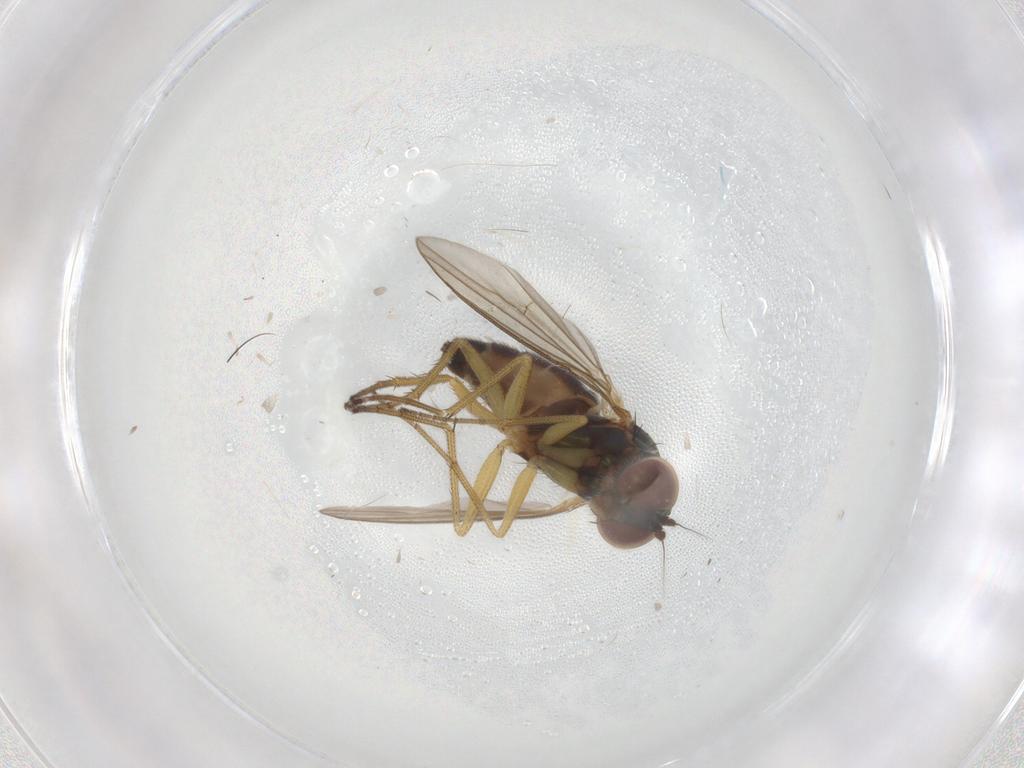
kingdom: Animalia
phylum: Arthropoda
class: Insecta
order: Diptera
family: Dolichopodidae
